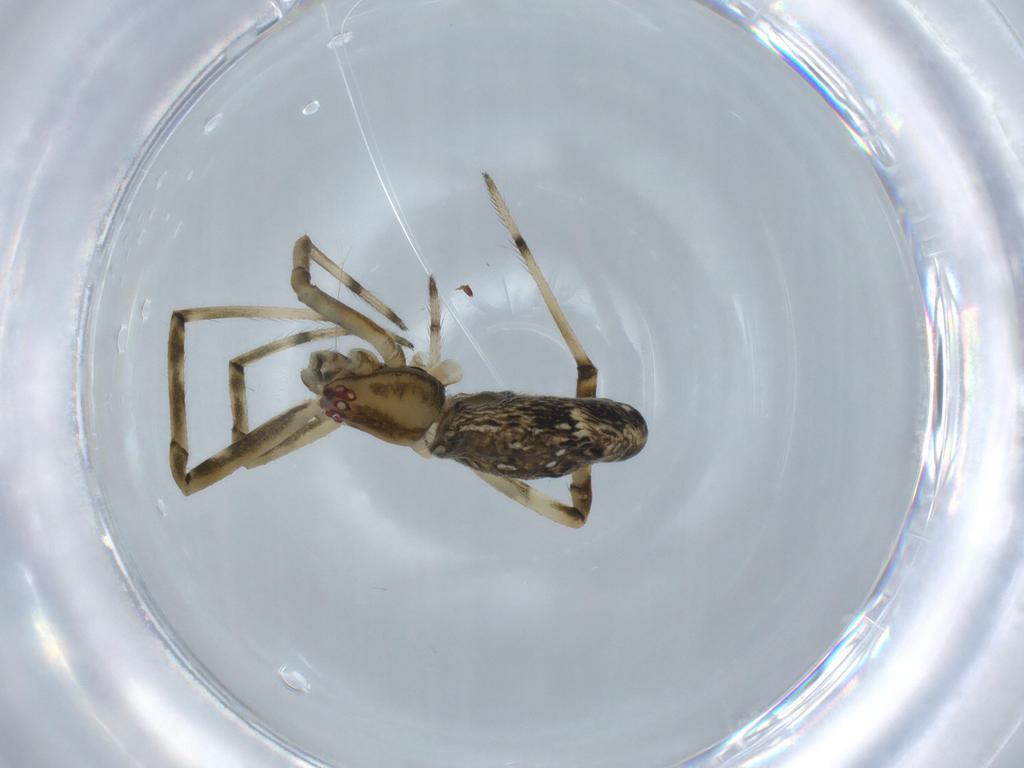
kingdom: Animalia
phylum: Arthropoda
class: Arachnida
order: Araneae
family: Theridiidae
